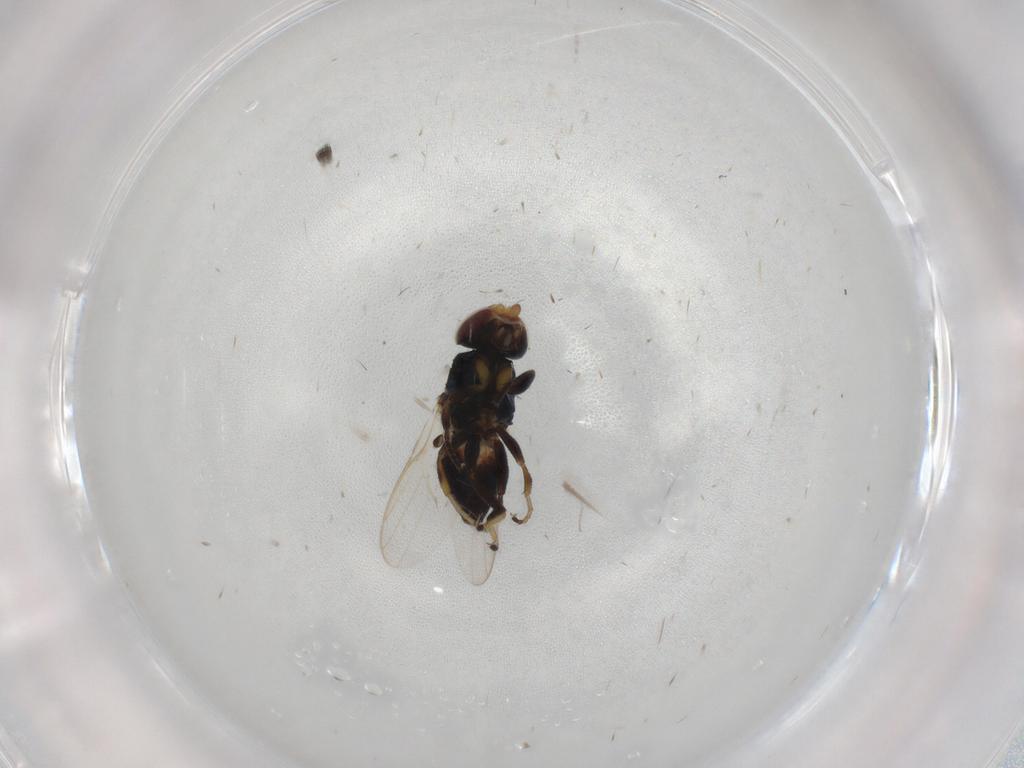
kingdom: Animalia
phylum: Arthropoda
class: Insecta
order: Diptera
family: Chloropidae
